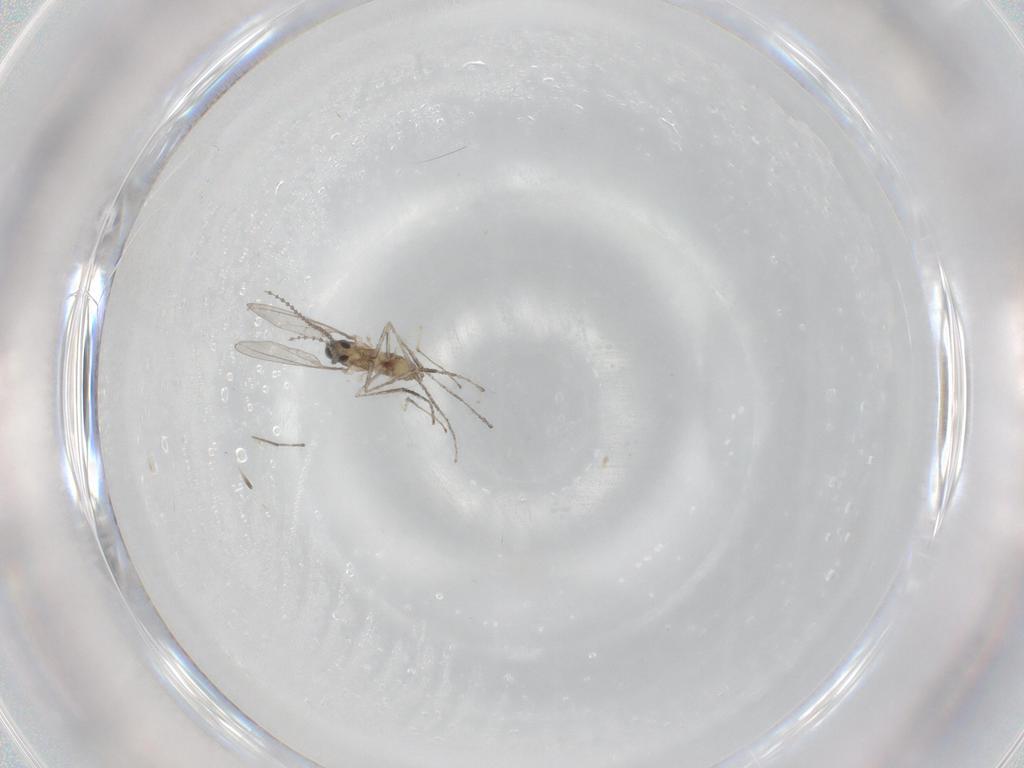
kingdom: Animalia
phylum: Arthropoda
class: Insecta
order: Diptera
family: Cecidomyiidae
